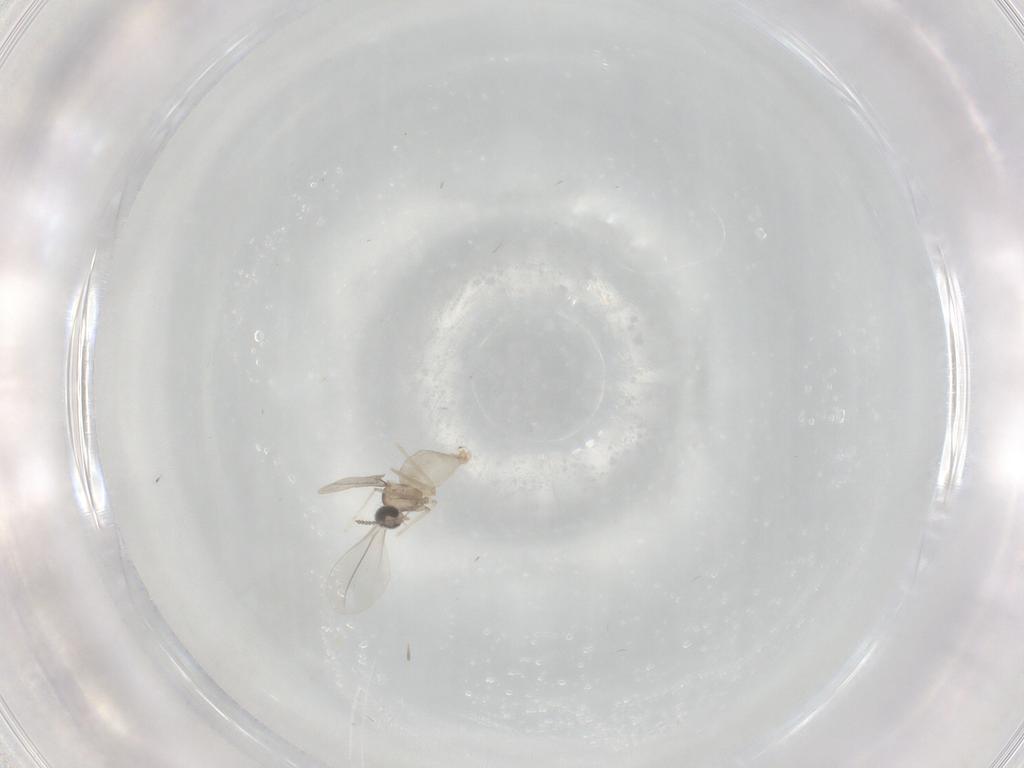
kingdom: Animalia
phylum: Arthropoda
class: Insecta
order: Diptera
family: Cecidomyiidae
